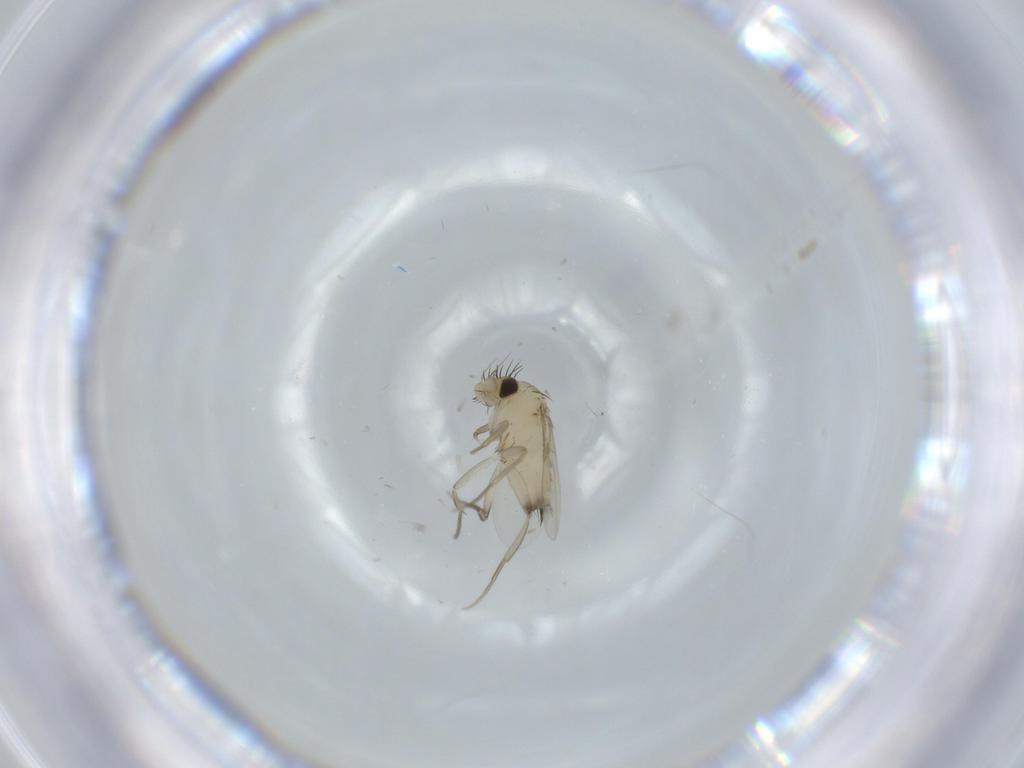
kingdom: Animalia
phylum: Arthropoda
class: Insecta
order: Diptera
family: Phoridae
